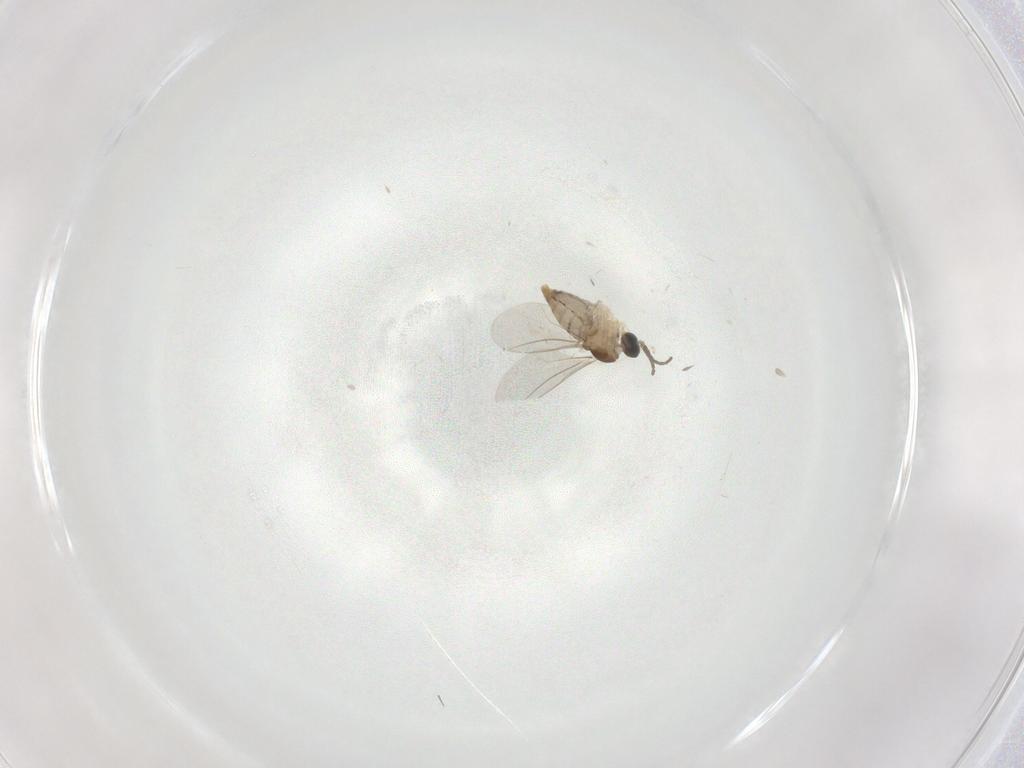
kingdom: Animalia
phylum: Arthropoda
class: Insecta
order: Diptera
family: Cecidomyiidae
